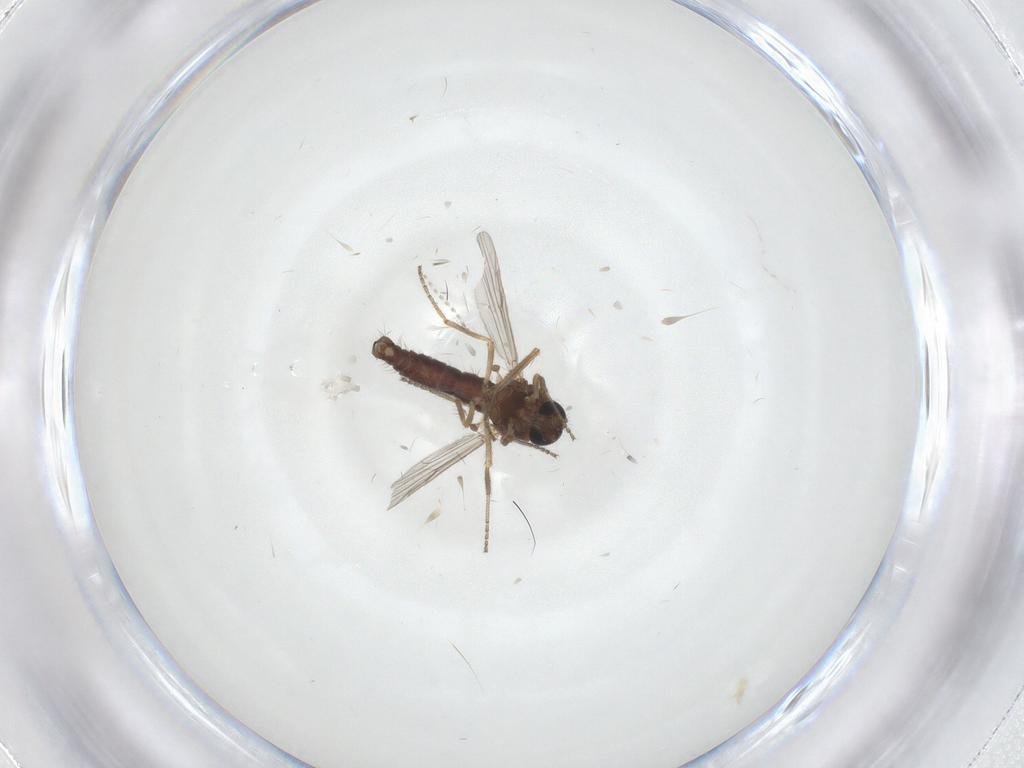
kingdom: Animalia
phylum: Arthropoda
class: Insecta
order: Diptera
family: Ceratopogonidae
